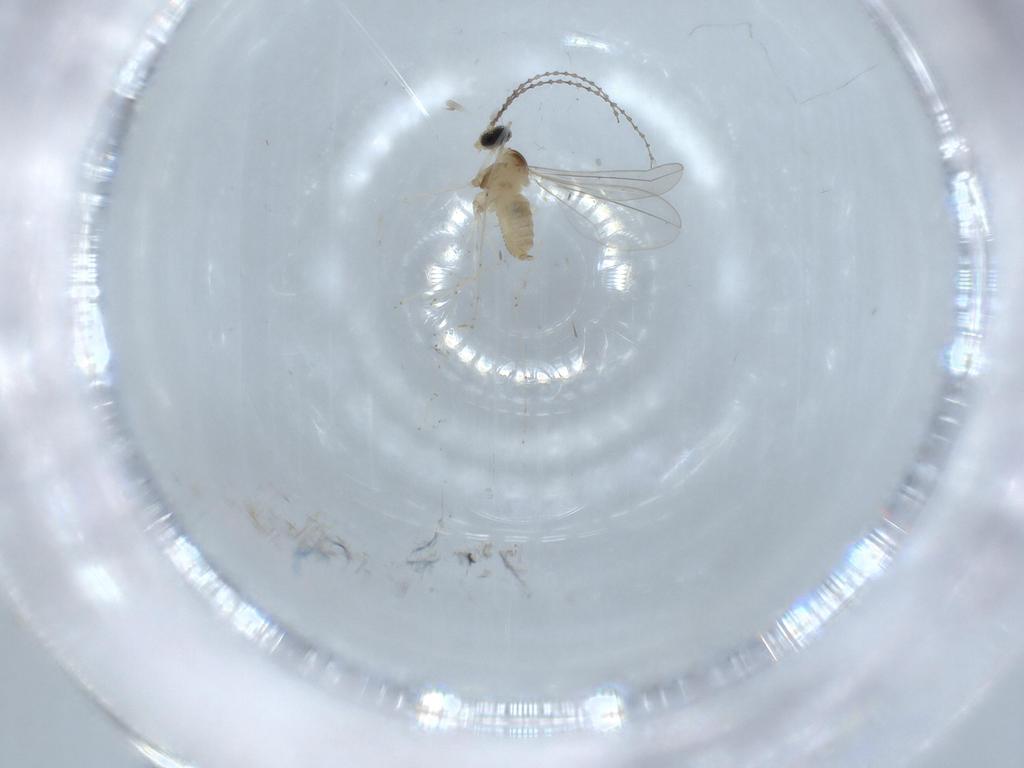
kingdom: Animalia
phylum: Arthropoda
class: Insecta
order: Diptera
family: Cecidomyiidae
